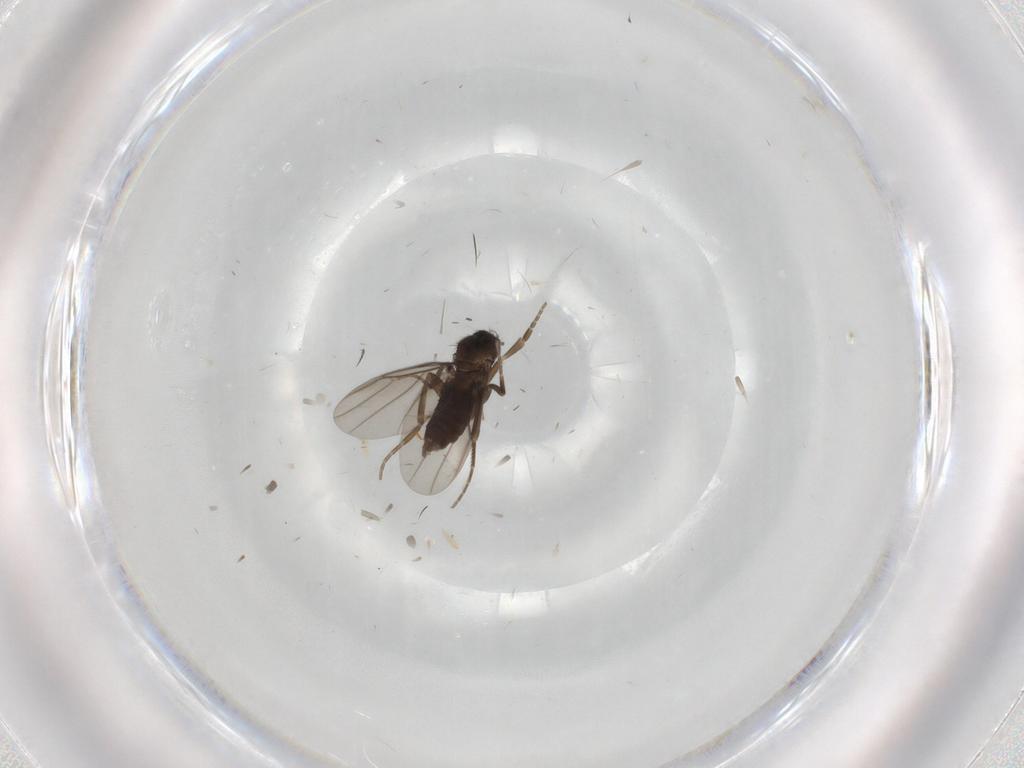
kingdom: Animalia
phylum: Arthropoda
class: Insecta
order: Diptera
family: Phoridae
